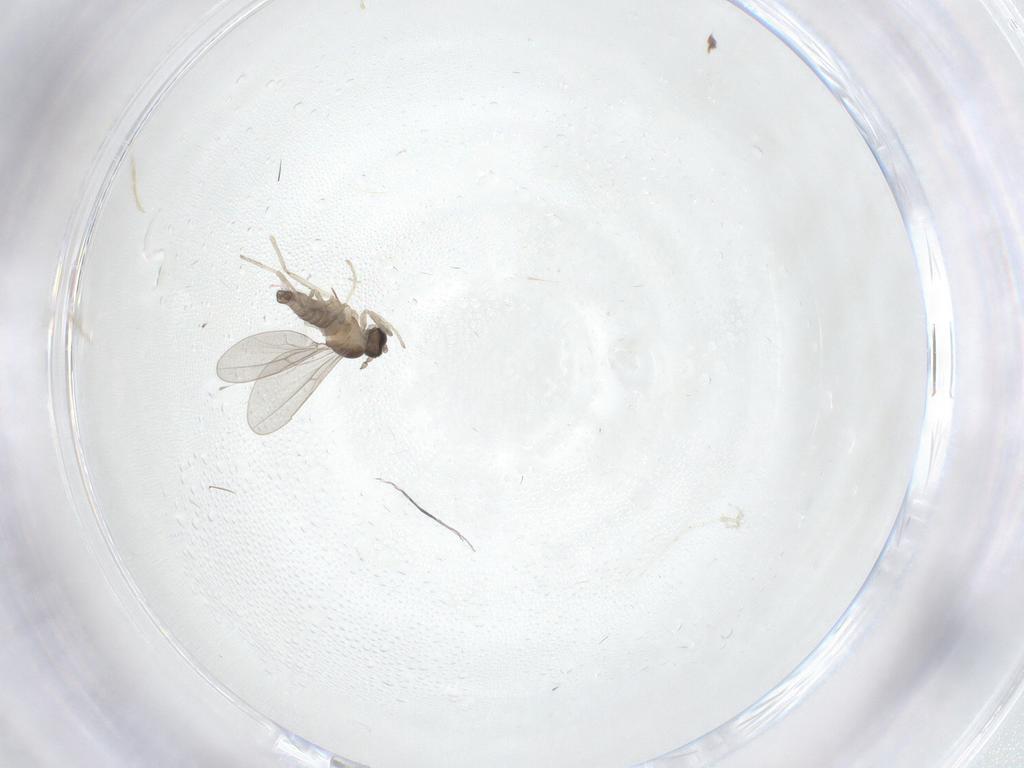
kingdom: Animalia
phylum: Arthropoda
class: Insecta
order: Diptera
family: Cecidomyiidae
